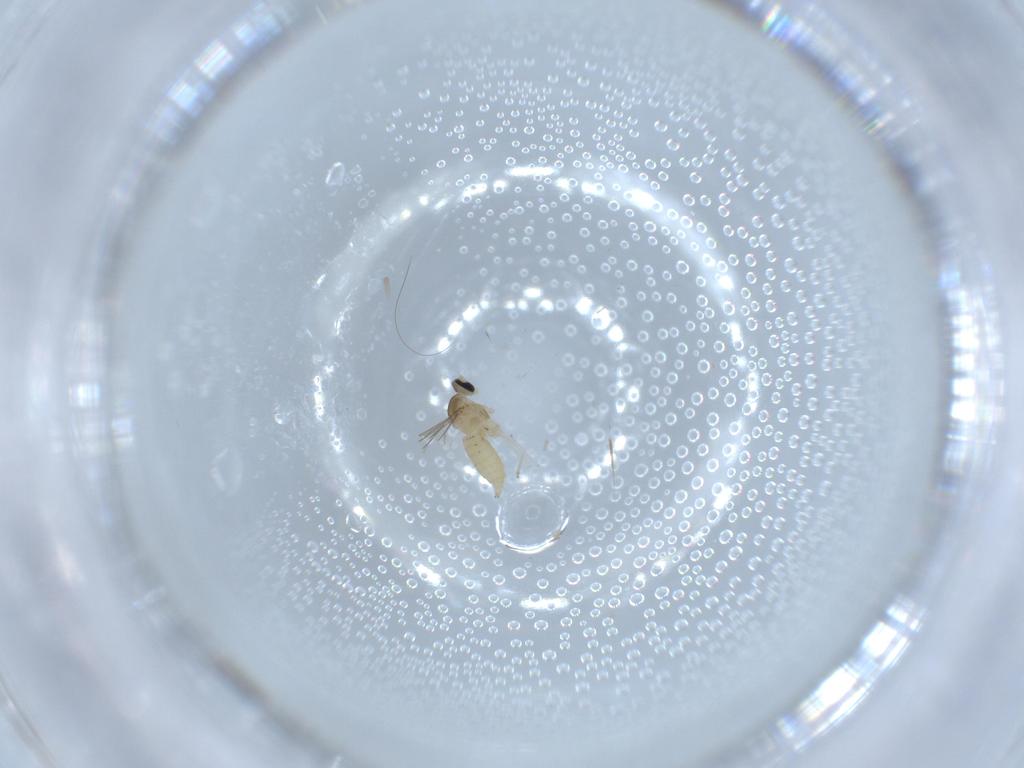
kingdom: Animalia
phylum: Arthropoda
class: Insecta
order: Diptera
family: Cecidomyiidae
